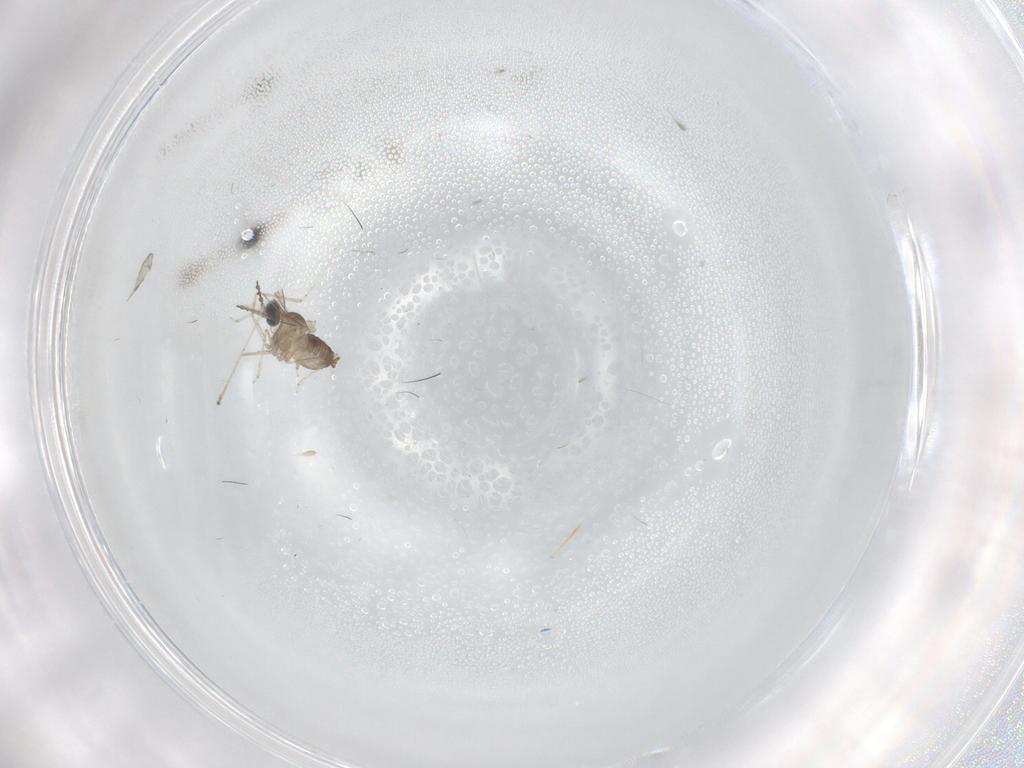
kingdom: Animalia
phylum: Arthropoda
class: Insecta
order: Diptera
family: Cecidomyiidae
